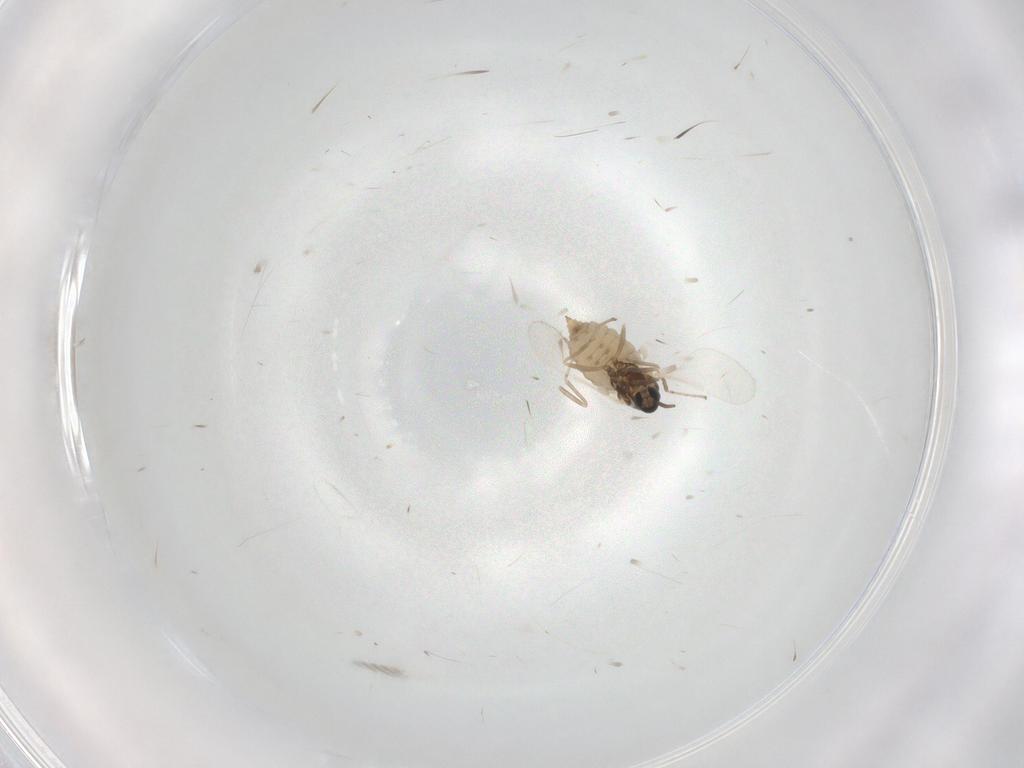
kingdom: Animalia
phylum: Arthropoda
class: Insecta
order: Diptera
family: Cecidomyiidae
